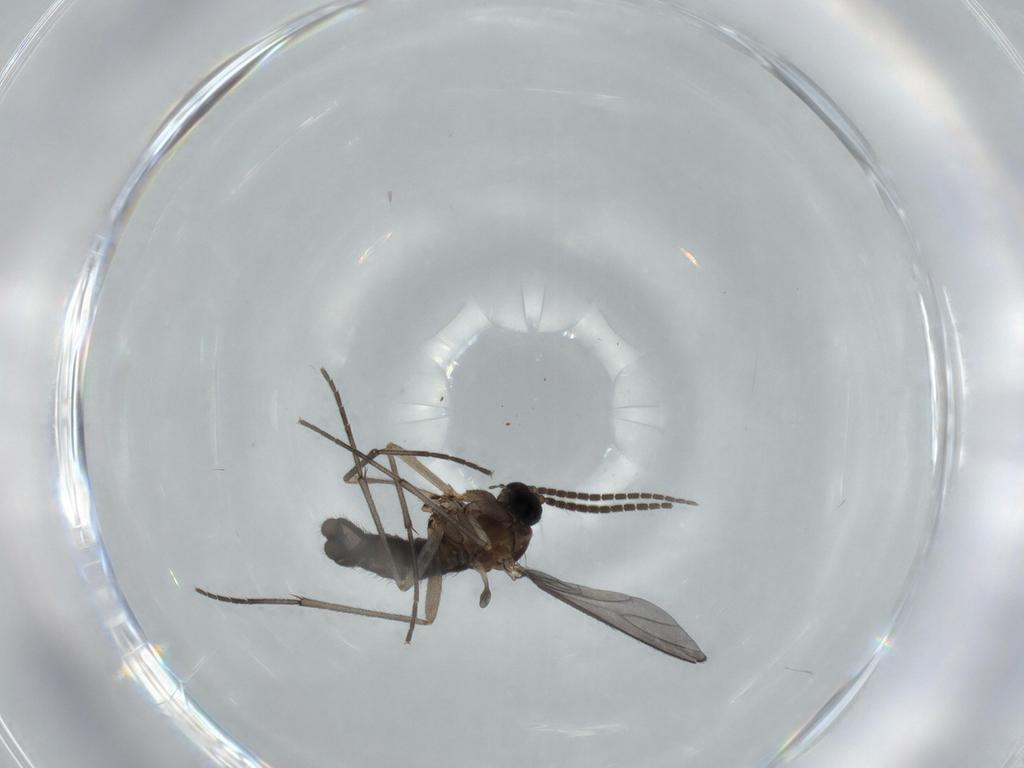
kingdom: Animalia
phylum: Arthropoda
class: Insecta
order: Diptera
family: Sciaridae
